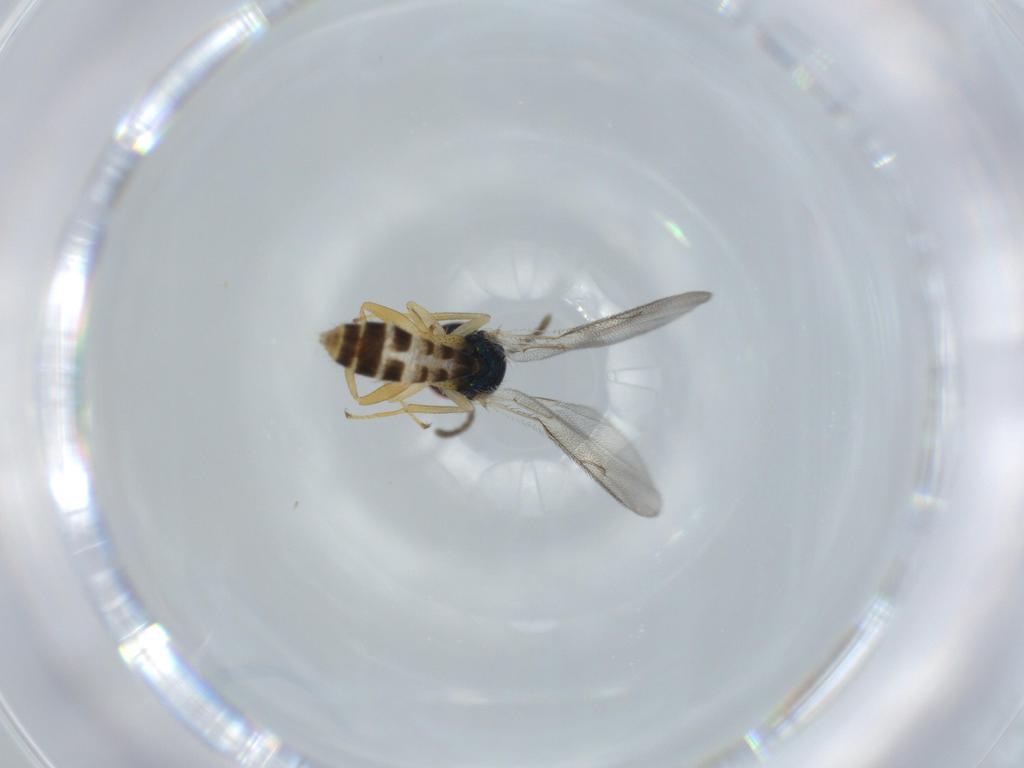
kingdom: Animalia
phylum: Arthropoda
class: Insecta
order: Hymenoptera
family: Pteromalidae
